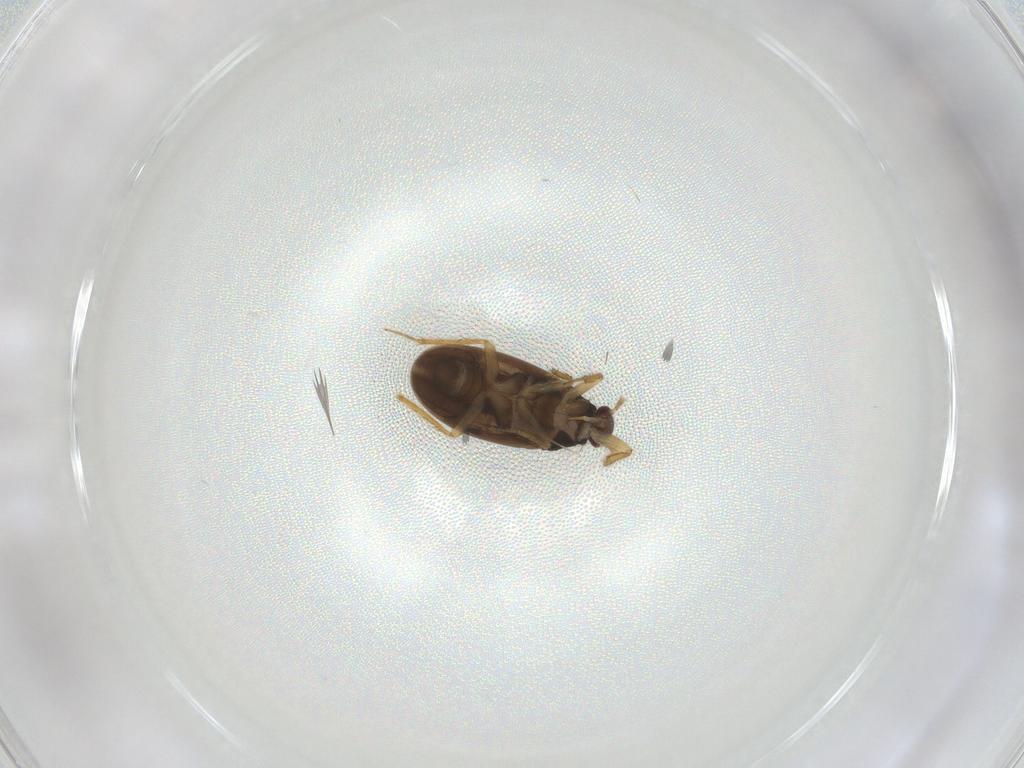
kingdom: Animalia
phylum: Arthropoda
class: Insecta
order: Hemiptera
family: Ceratocombidae
